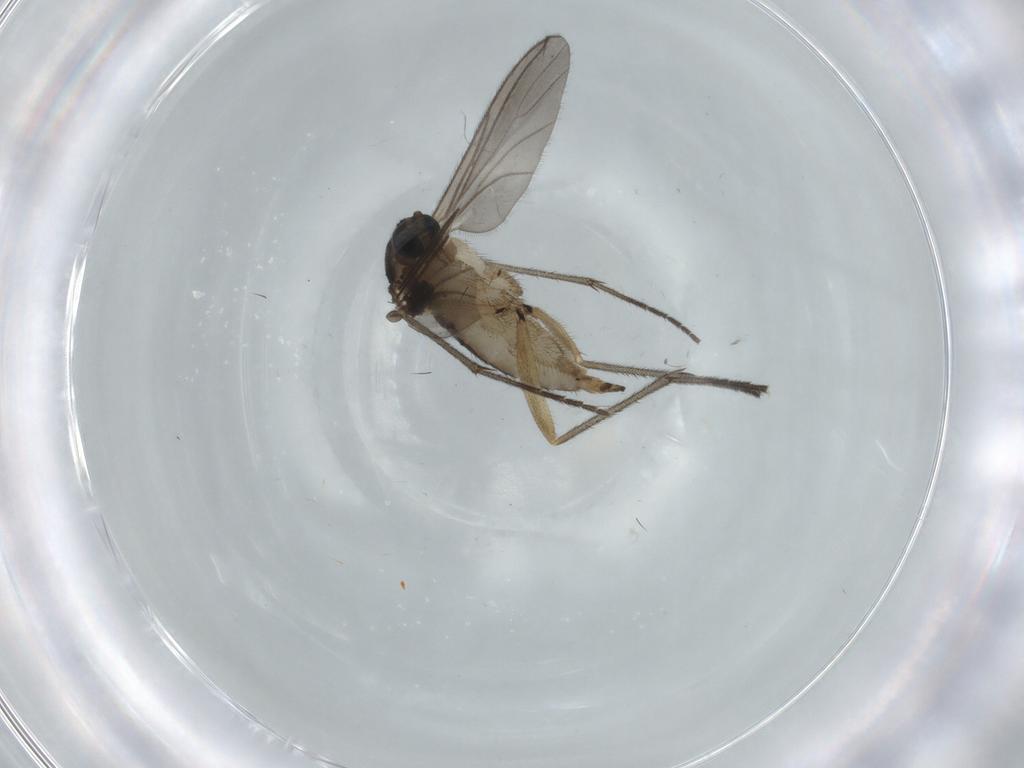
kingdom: Animalia
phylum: Arthropoda
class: Insecta
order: Diptera
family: Sciaridae
